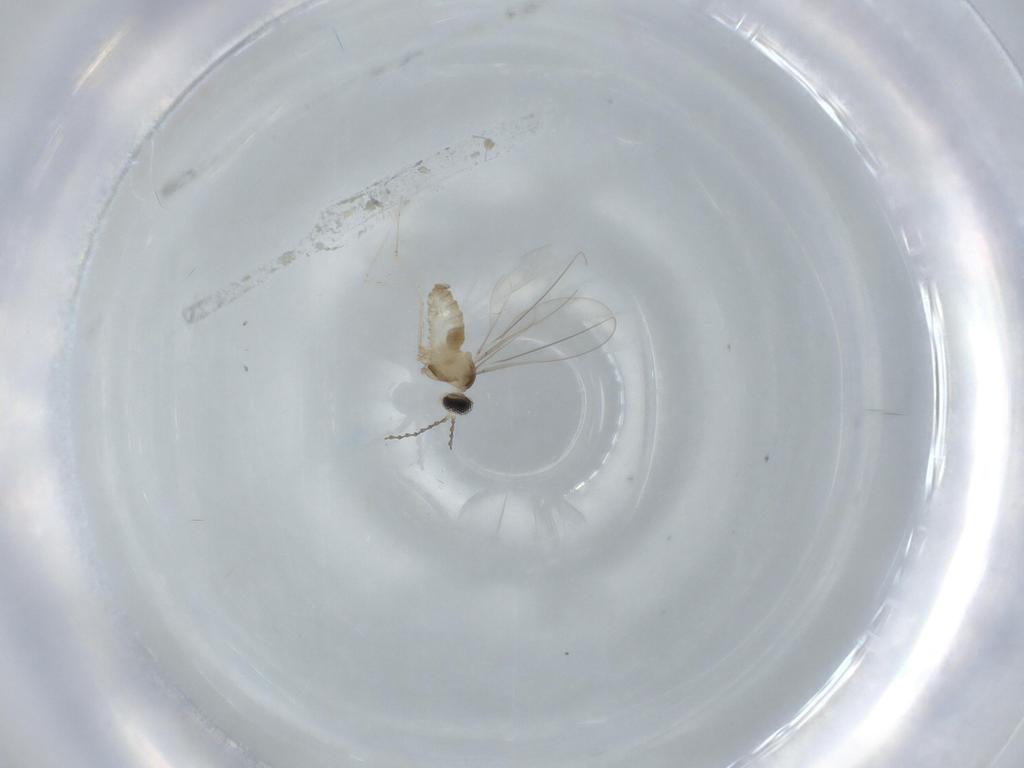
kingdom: Animalia
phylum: Arthropoda
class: Insecta
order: Diptera
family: Cecidomyiidae
